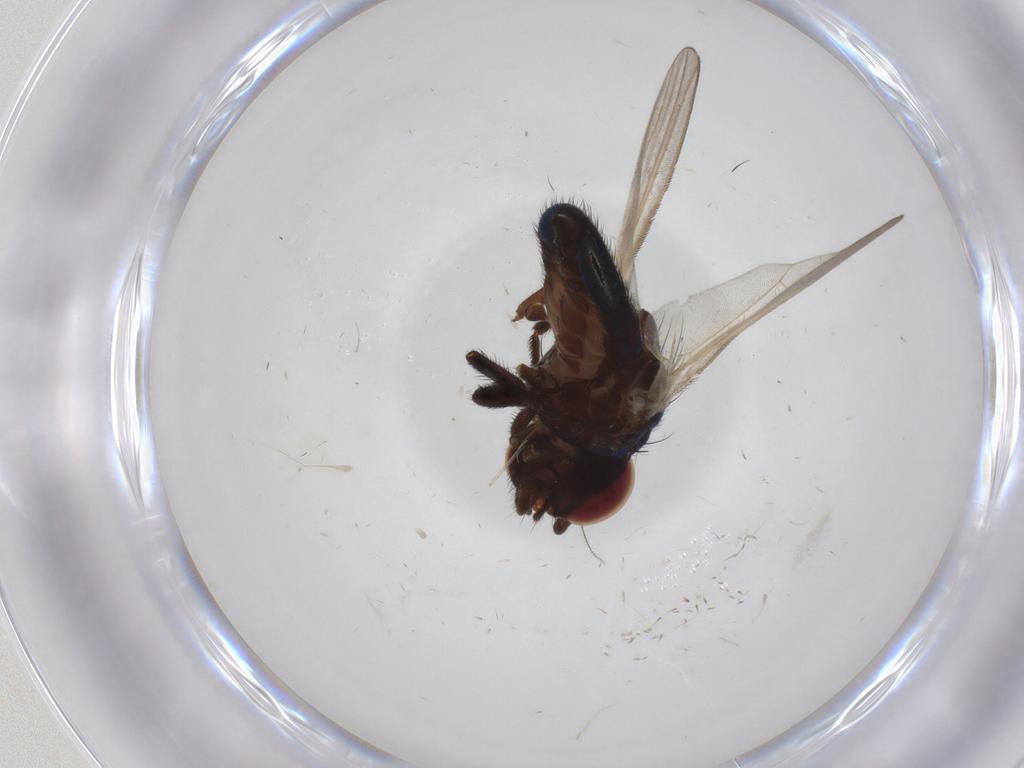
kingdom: Animalia
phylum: Arthropoda
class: Insecta
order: Diptera
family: Lonchaeidae
